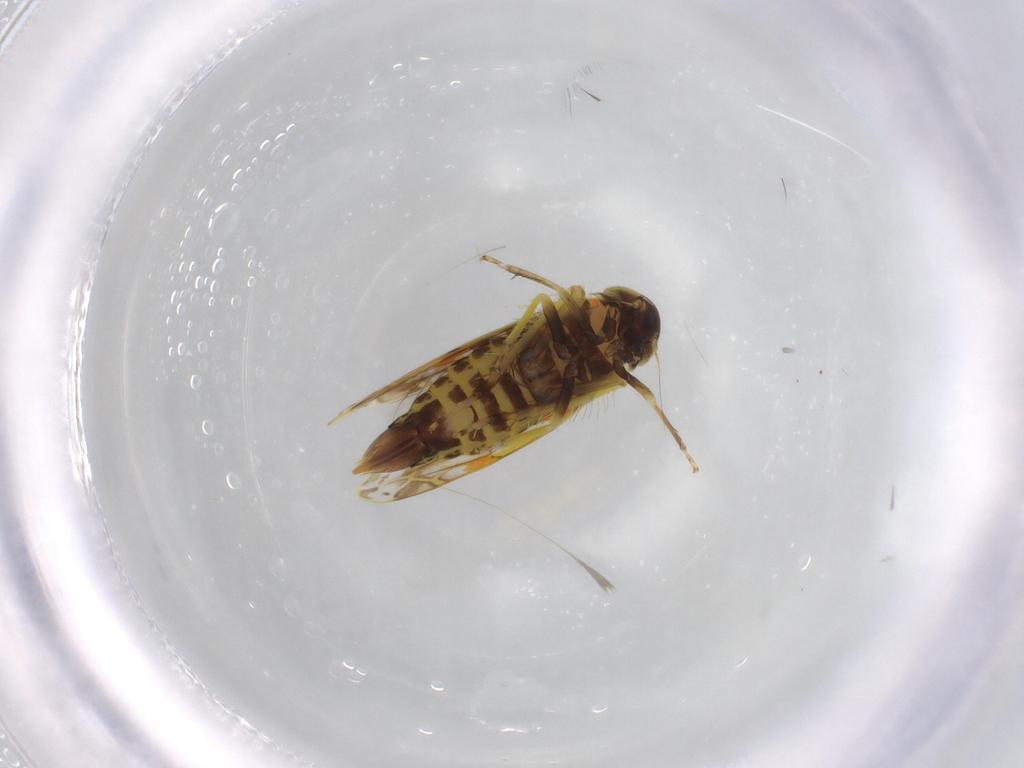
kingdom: Animalia
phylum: Arthropoda
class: Insecta
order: Hemiptera
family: Cicadellidae
